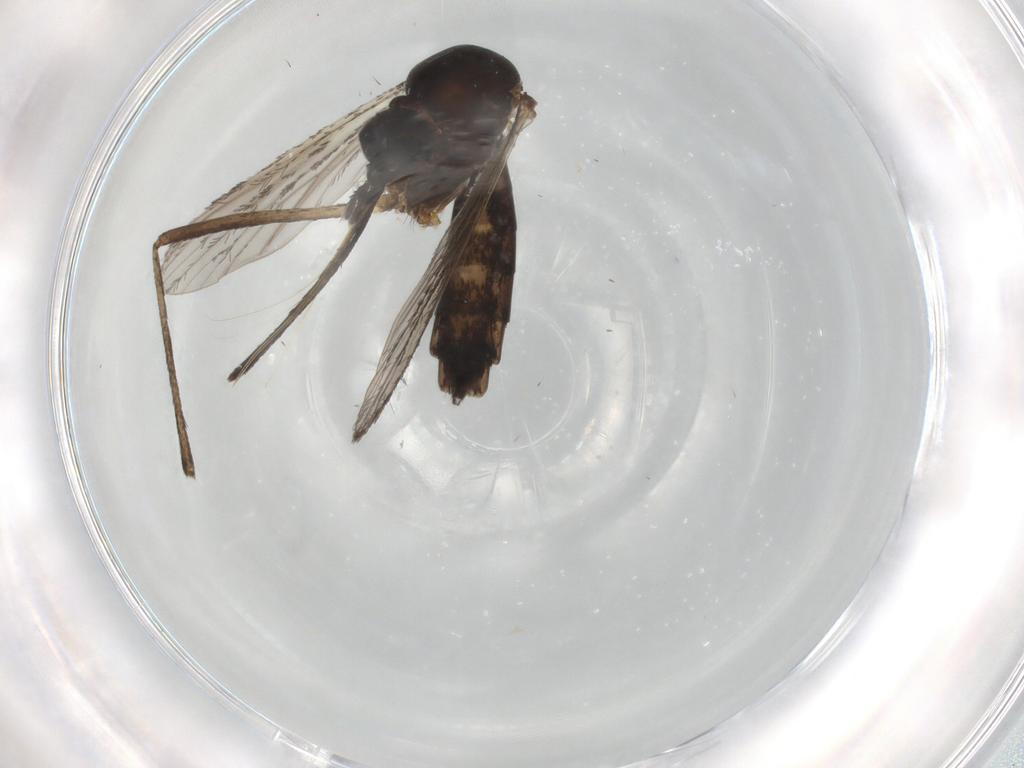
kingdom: Animalia
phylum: Arthropoda
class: Insecta
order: Diptera
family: Culicidae
